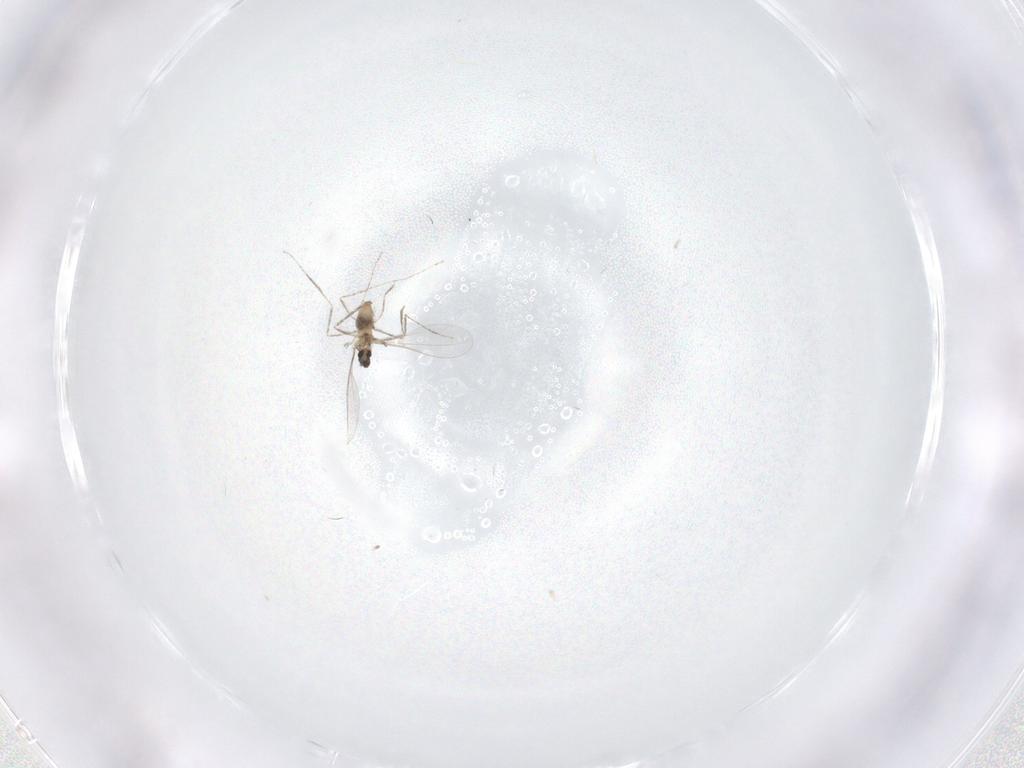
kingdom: Animalia
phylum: Arthropoda
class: Insecta
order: Diptera
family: Cecidomyiidae
